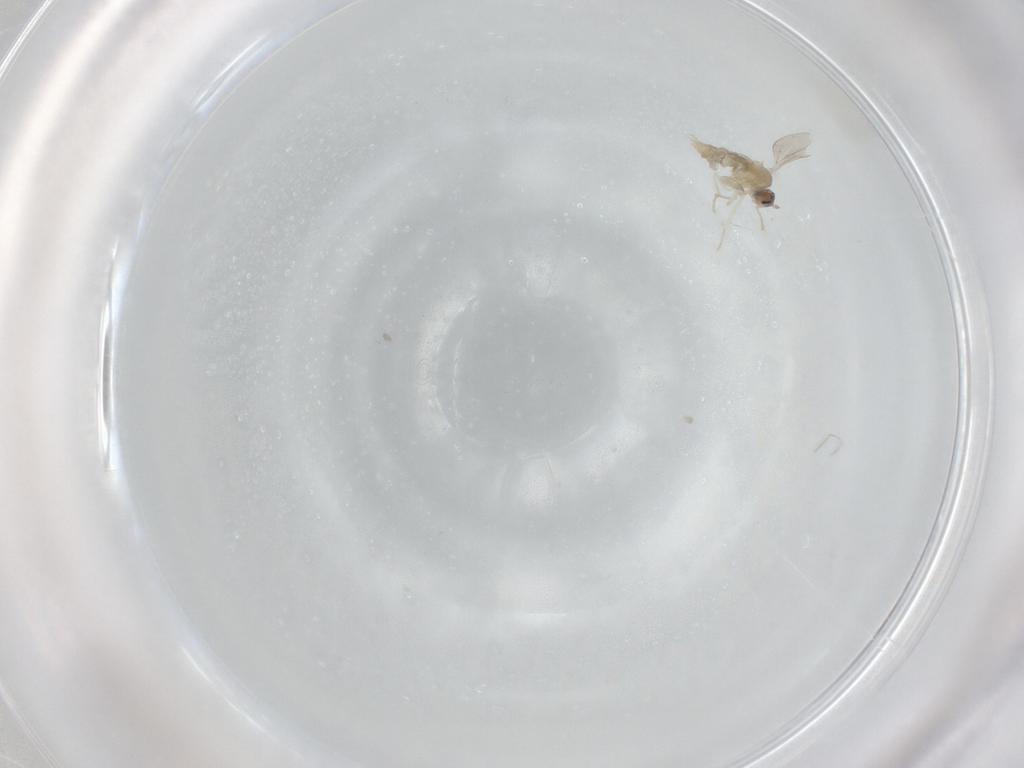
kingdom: Animalia
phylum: Arthropoda
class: Insecta
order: Diptera
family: Cecidomyiidae
